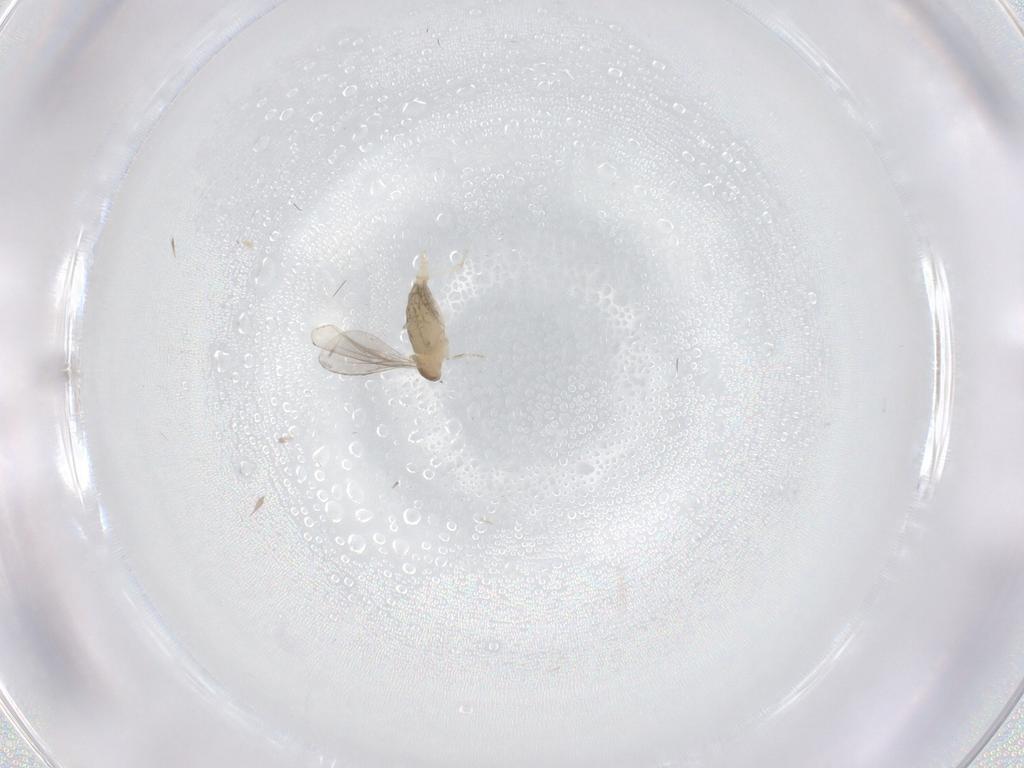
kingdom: Animalia
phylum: Arthropoda
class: Insecta
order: Diptera
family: Cecidomyiidae
